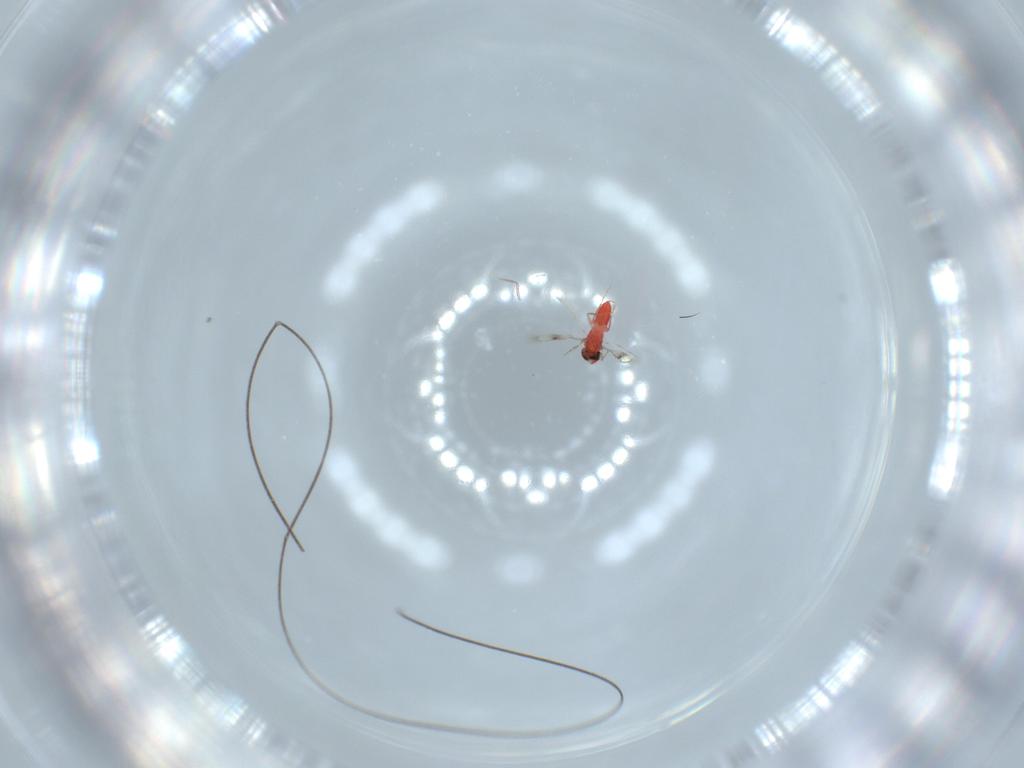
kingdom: Animalia
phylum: Arthropoda
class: Insecta
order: Hymenoptera
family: Trichogrammatidae
